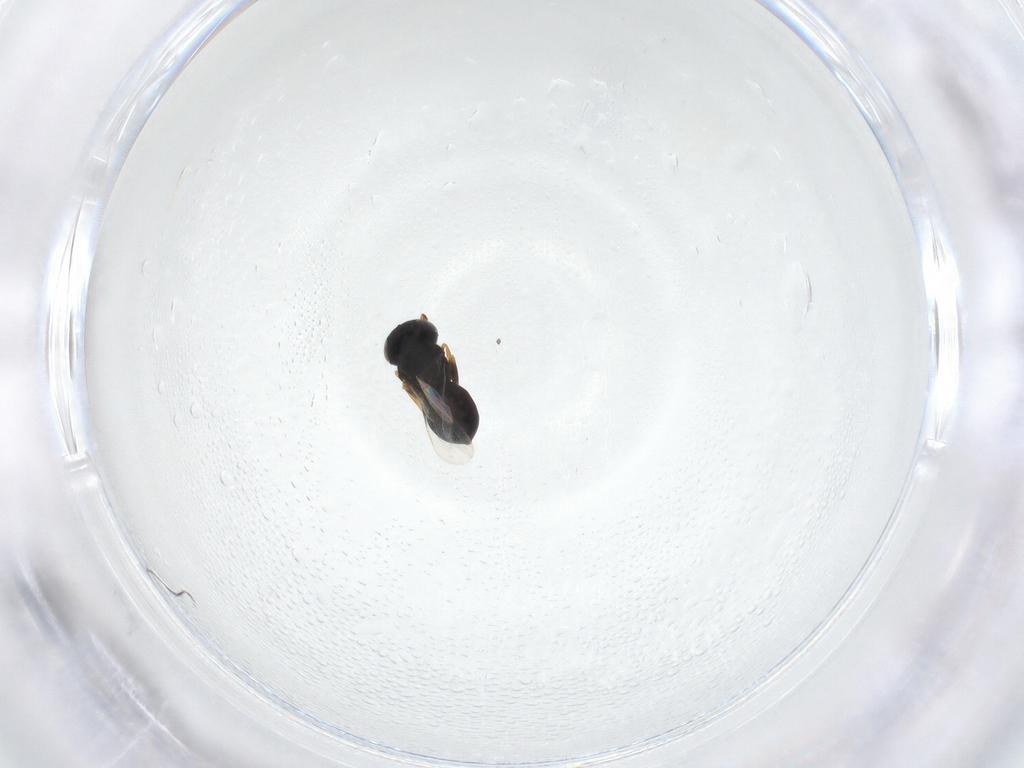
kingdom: Animalia
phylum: Arthropoda
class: Insecta
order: Hymenoptera
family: Scelionidae
